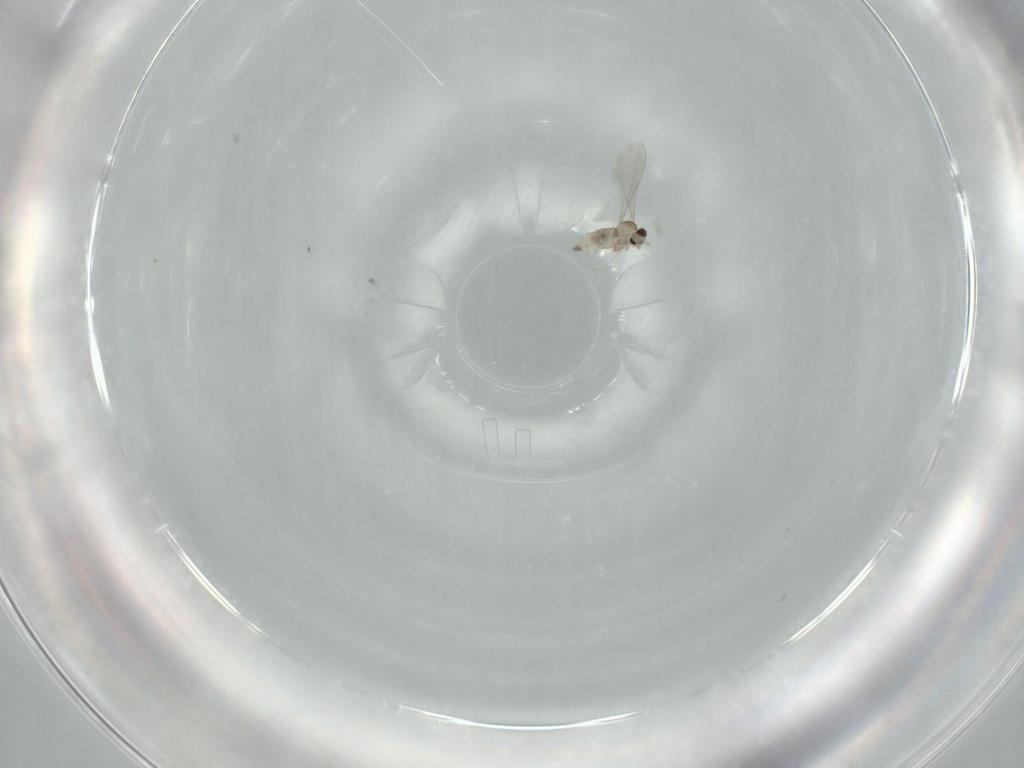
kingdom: Animalia
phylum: Arthropoda
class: Insecta
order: Diptera
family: Cecidomyiidae
